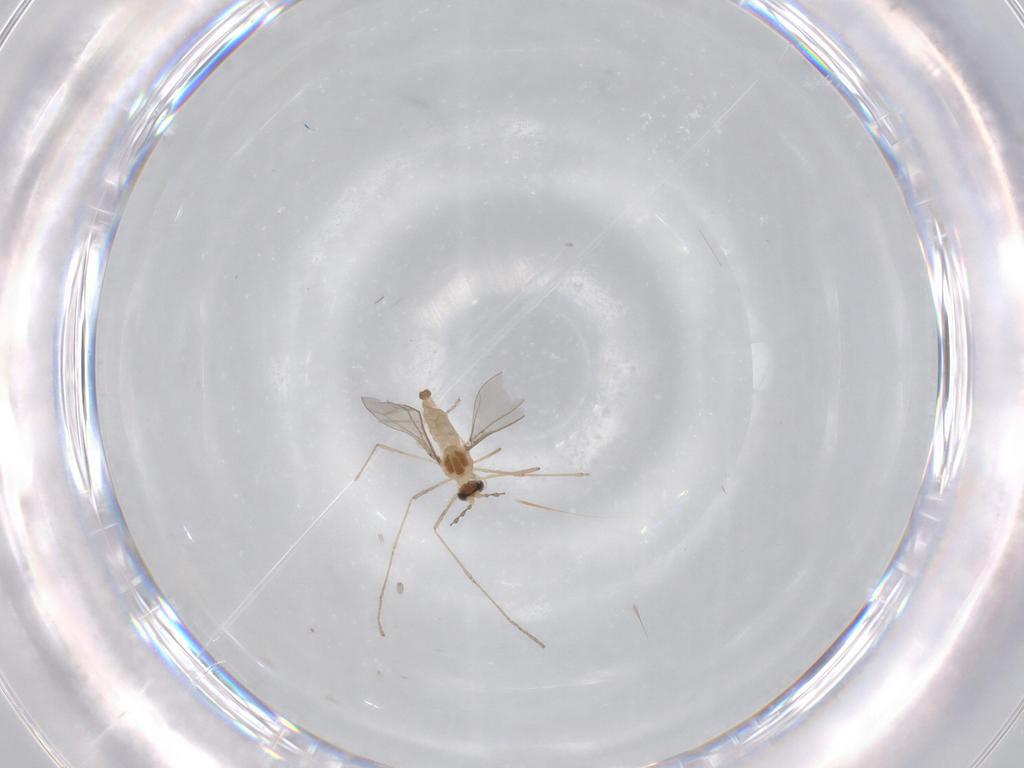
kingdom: Animalia
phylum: Arthropoda
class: Insecta
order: Diptera
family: Cecidomyiidae
